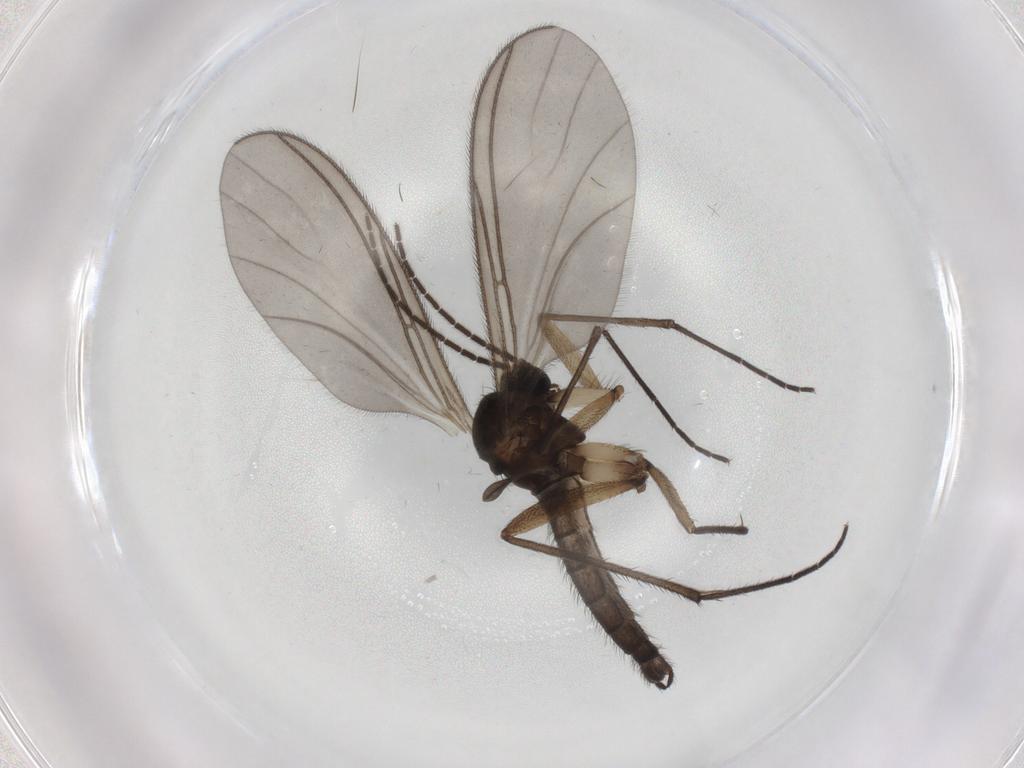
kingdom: Animalia
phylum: Arthropoda
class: Insecta
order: Diptera
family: Sciaridae
